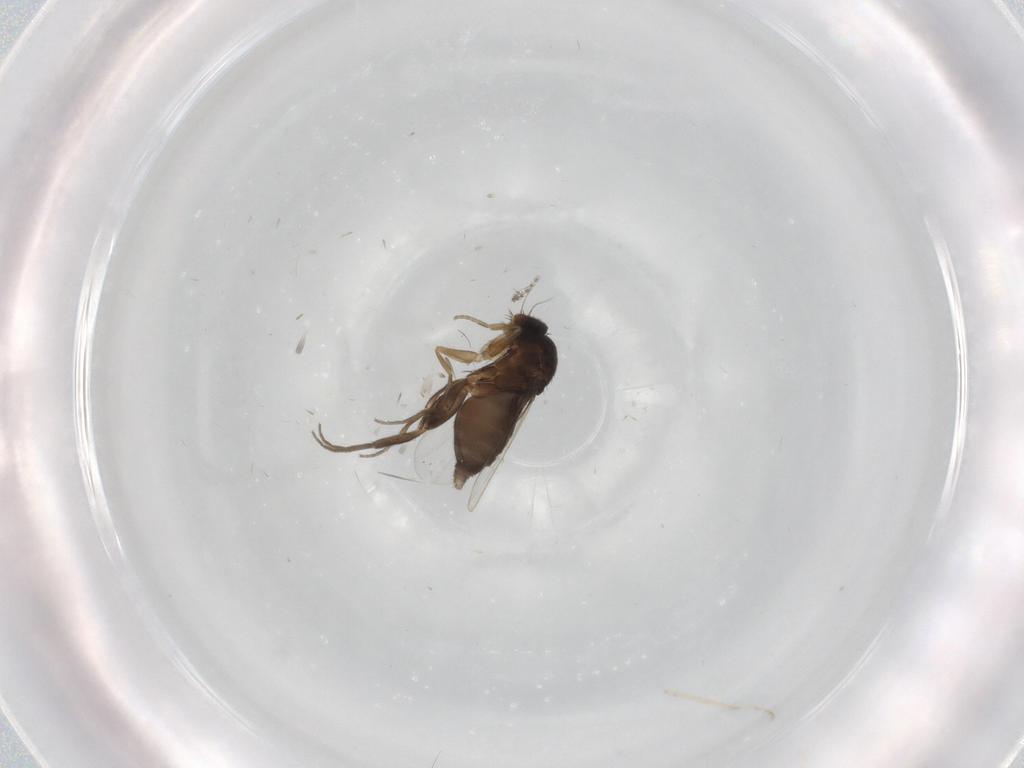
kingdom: Animalia
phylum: Arthropoda
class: Insecta
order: Diptera
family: Phoridae
